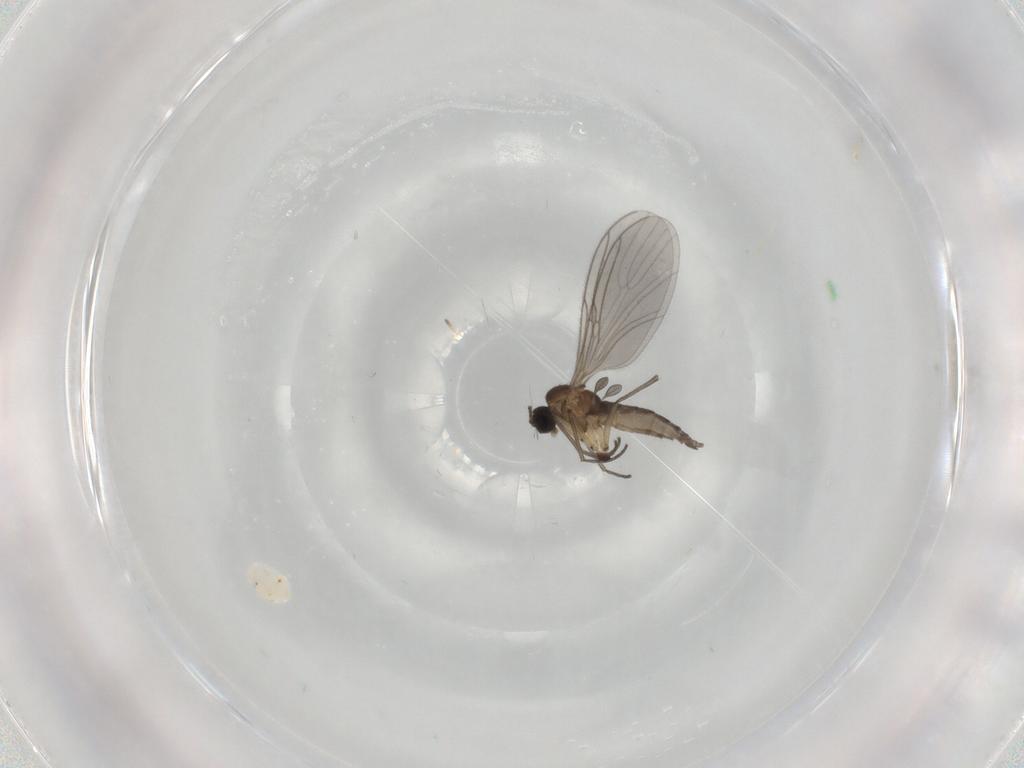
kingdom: Animalia
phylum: Arthropoda
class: Insecta
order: Diptera
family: Sciaridae
